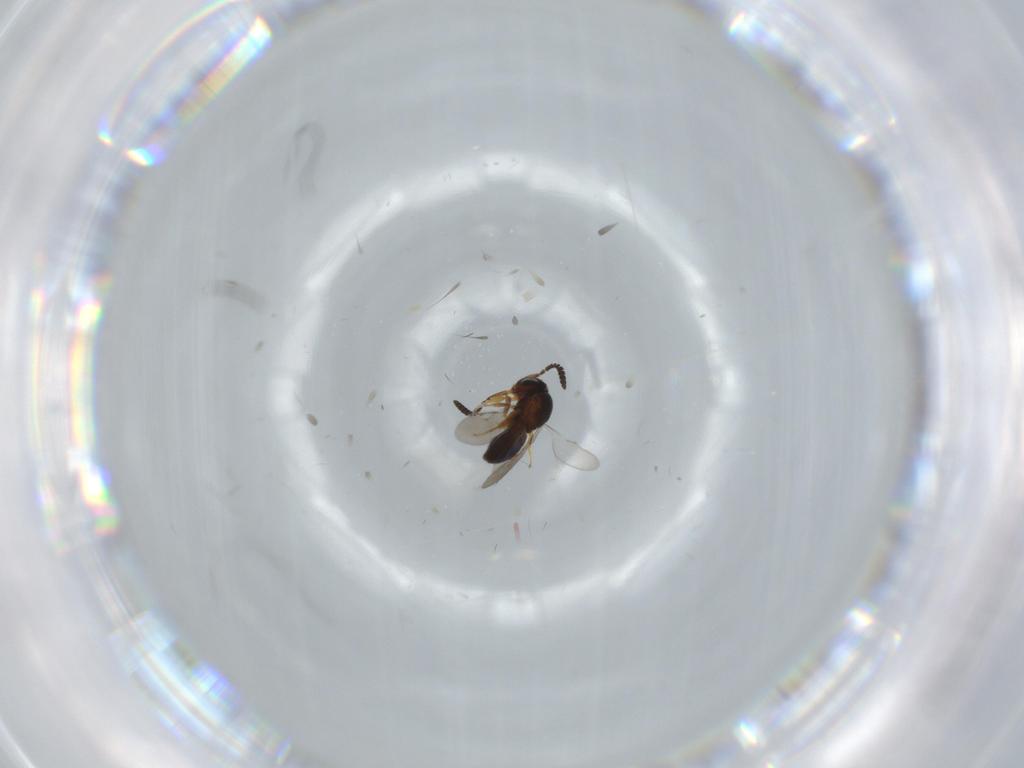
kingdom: Animalia
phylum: Arthropoda
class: Insecta
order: Hymenoptera
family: Scelionidae
